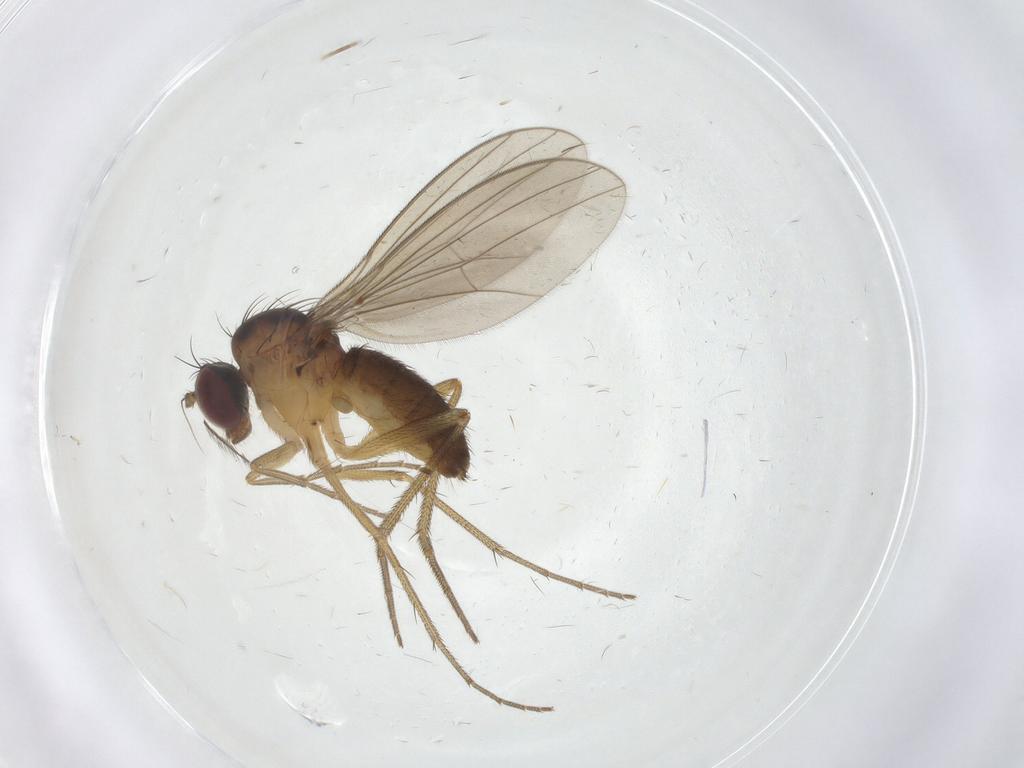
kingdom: Animalia
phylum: Arthropoda
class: Insecta
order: Diptera
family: Dolichopodidae
